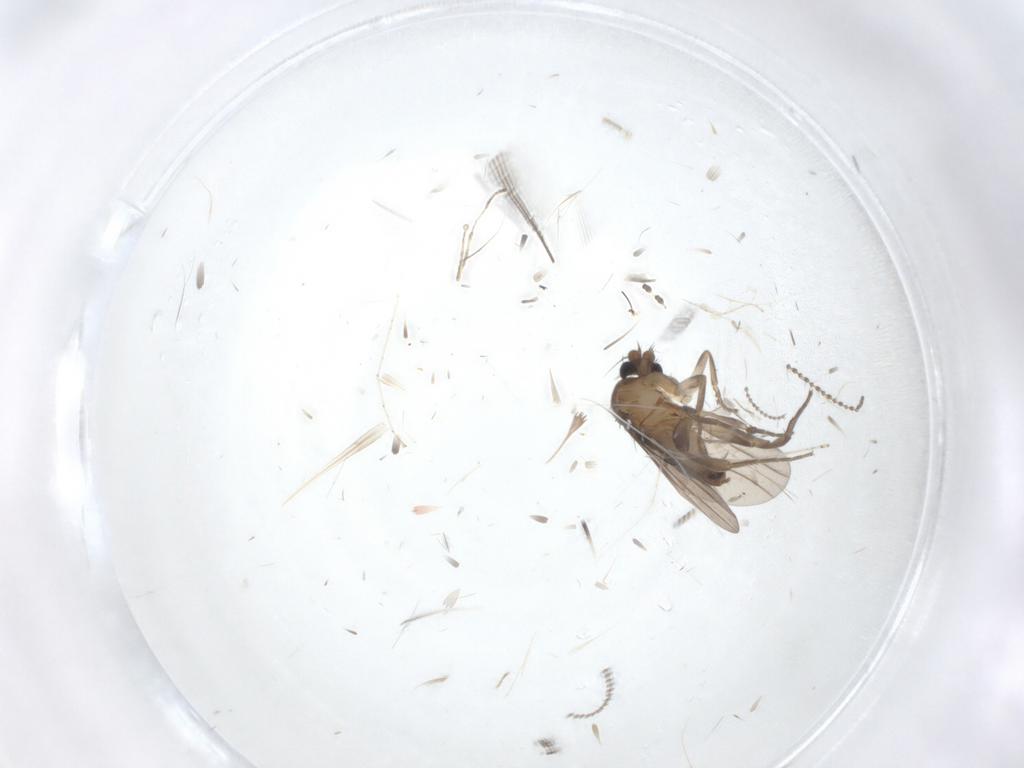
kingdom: Animalia
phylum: Arthropoda
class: Insecta
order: Diptera
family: Chironomidae
